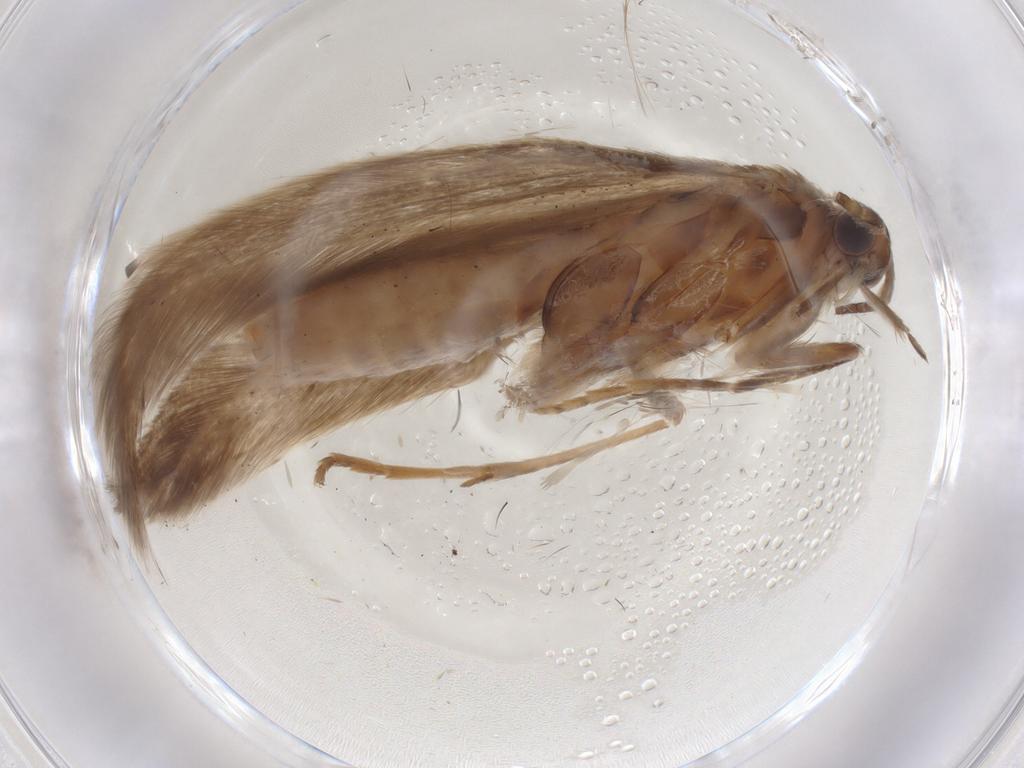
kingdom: Animalia
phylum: Arthropoda
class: Insecta
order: Lepidoptera
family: Coleophoridae
